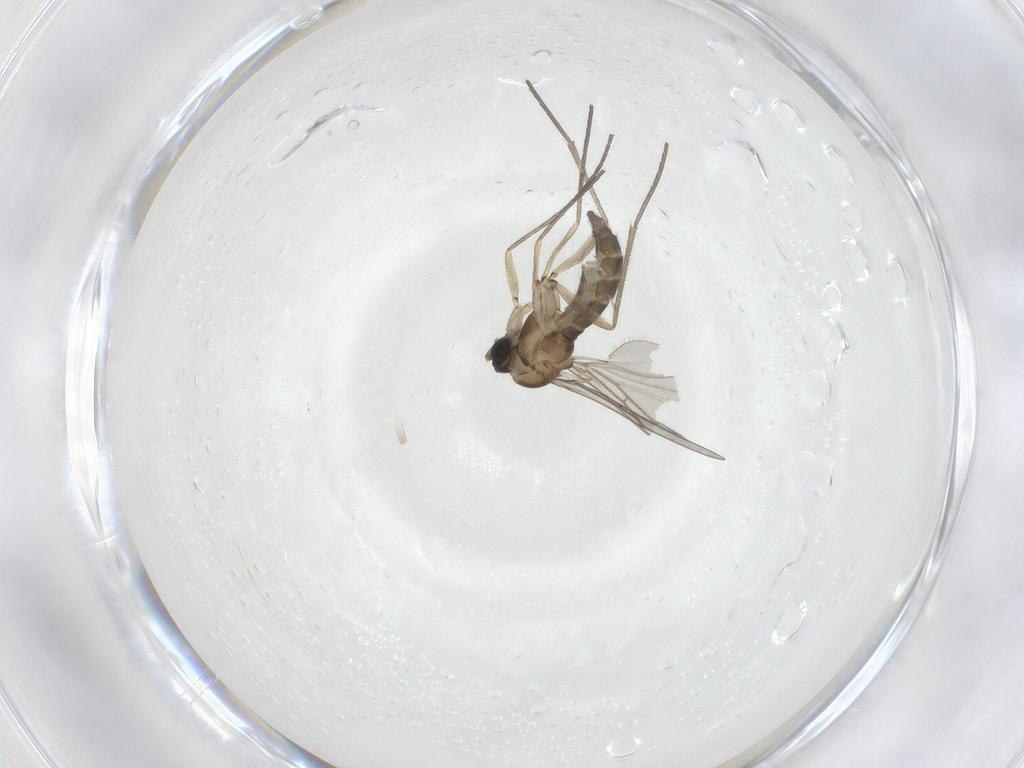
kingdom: Animalia
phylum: Arthropoda
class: Insecta
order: Diptera
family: Sciaridae
